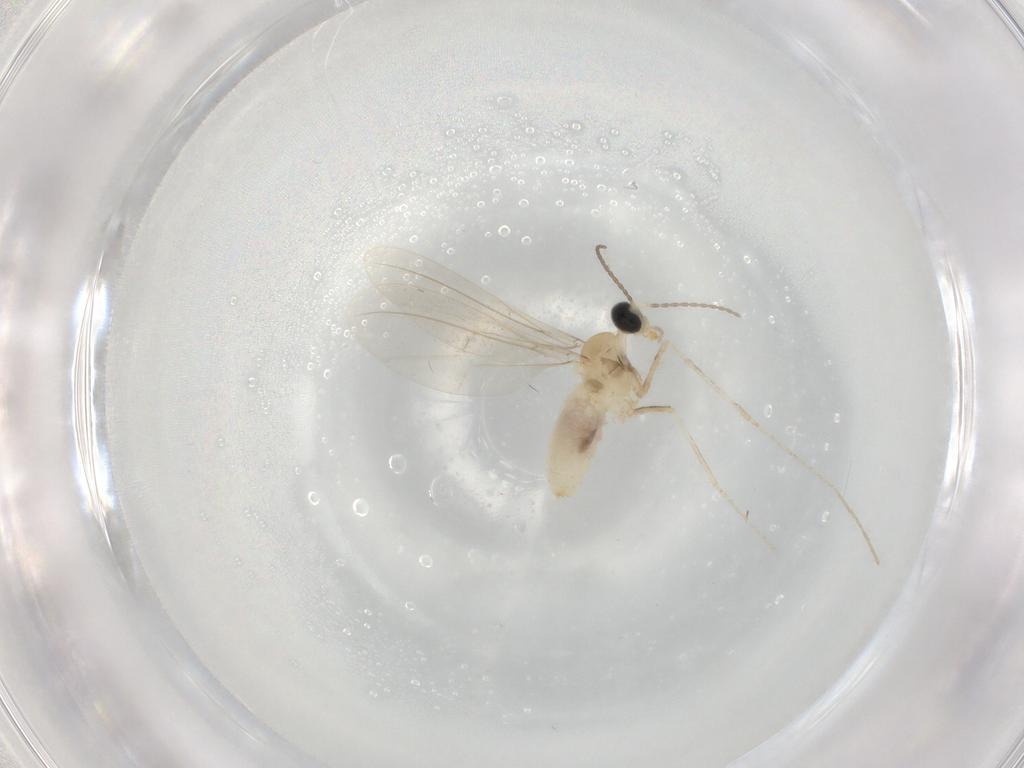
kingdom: Animalia
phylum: Arthropoda
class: Insecta
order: Diptera
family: Cecidomyiidae
